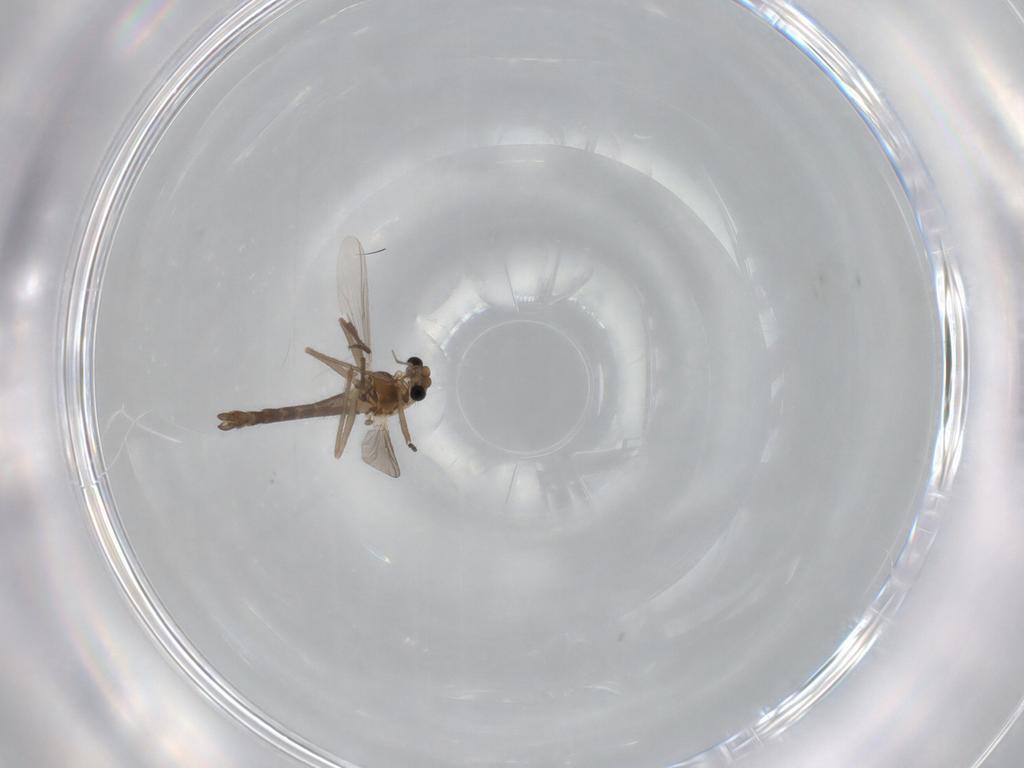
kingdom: Animalia
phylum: Arthropoda
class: Insecta
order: Diptera
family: Chironomidae
